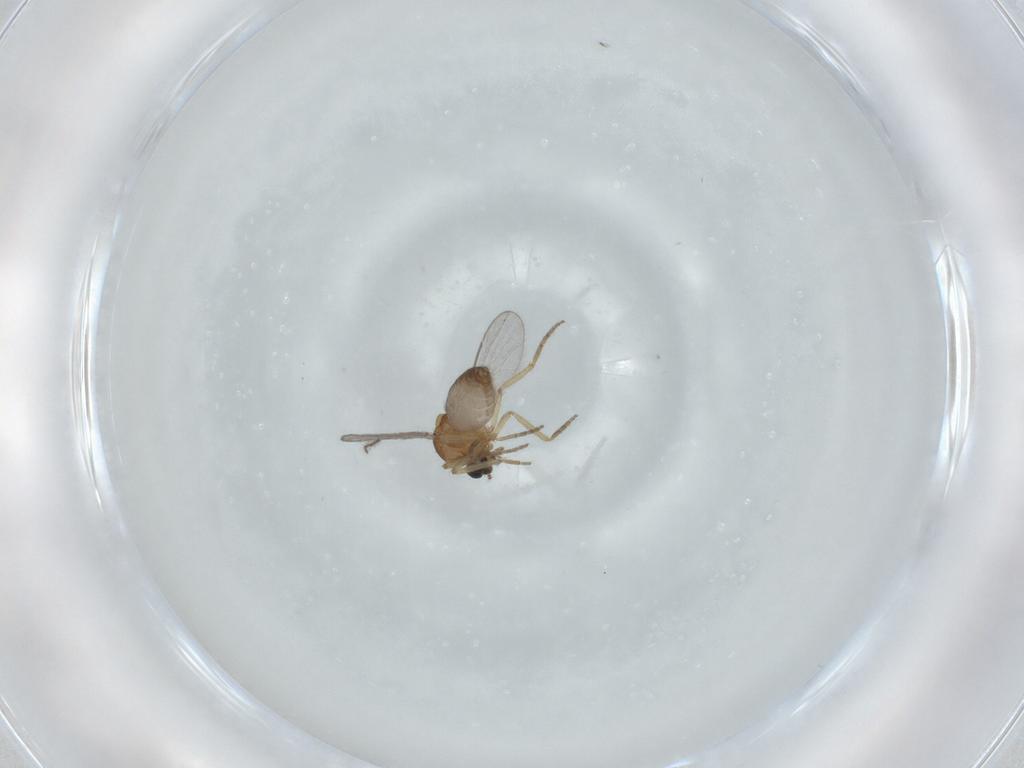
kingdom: Animalia
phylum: Arthropoda
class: Insecta
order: Diptera
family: Ceratopogonidae
